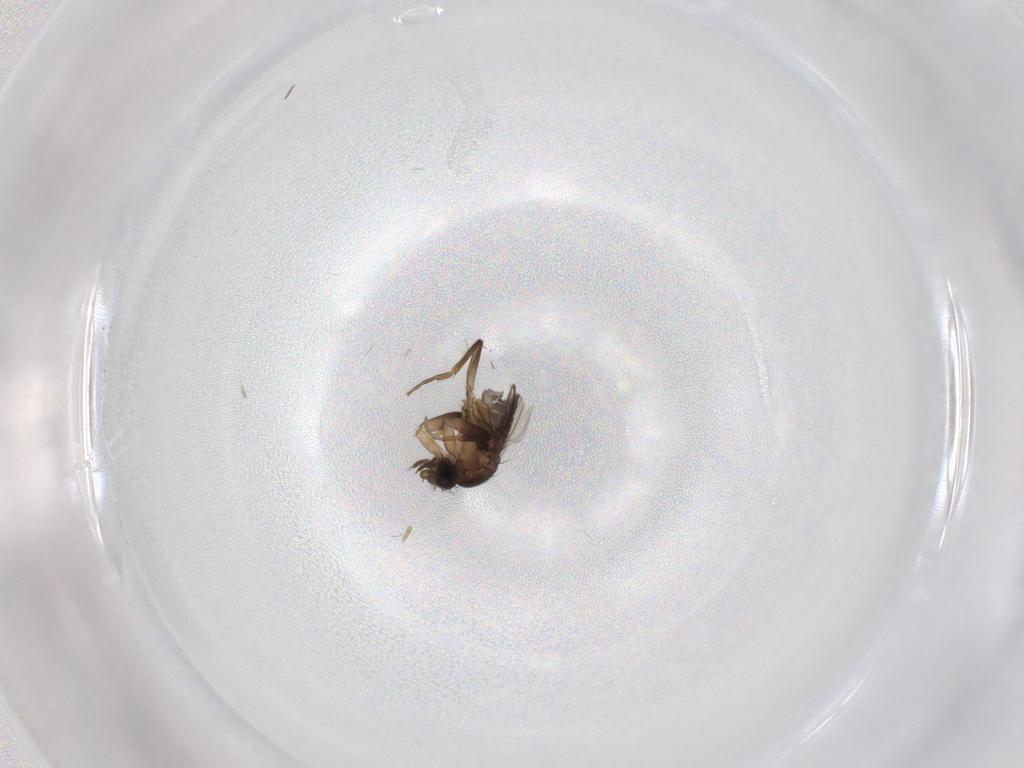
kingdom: Animalia
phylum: Arthropoda
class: Insecta
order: Diptera
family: Phoridae
